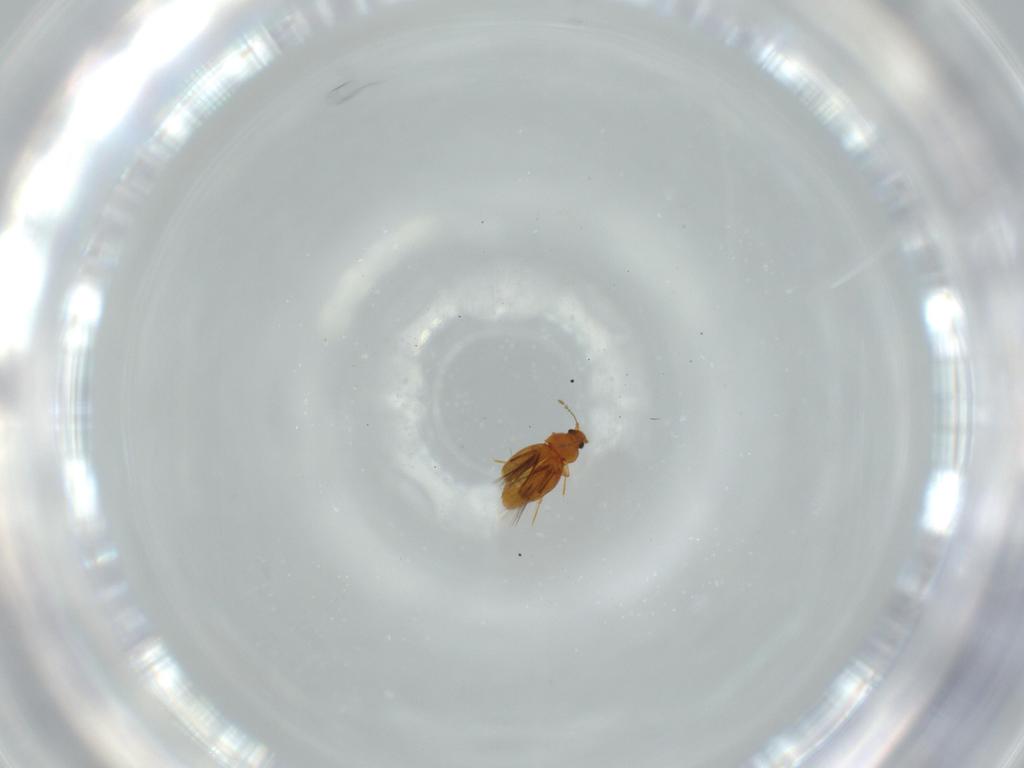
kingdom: Animalia
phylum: Arthropoda
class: Insecta
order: Coleoptera
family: Ptiliidae
